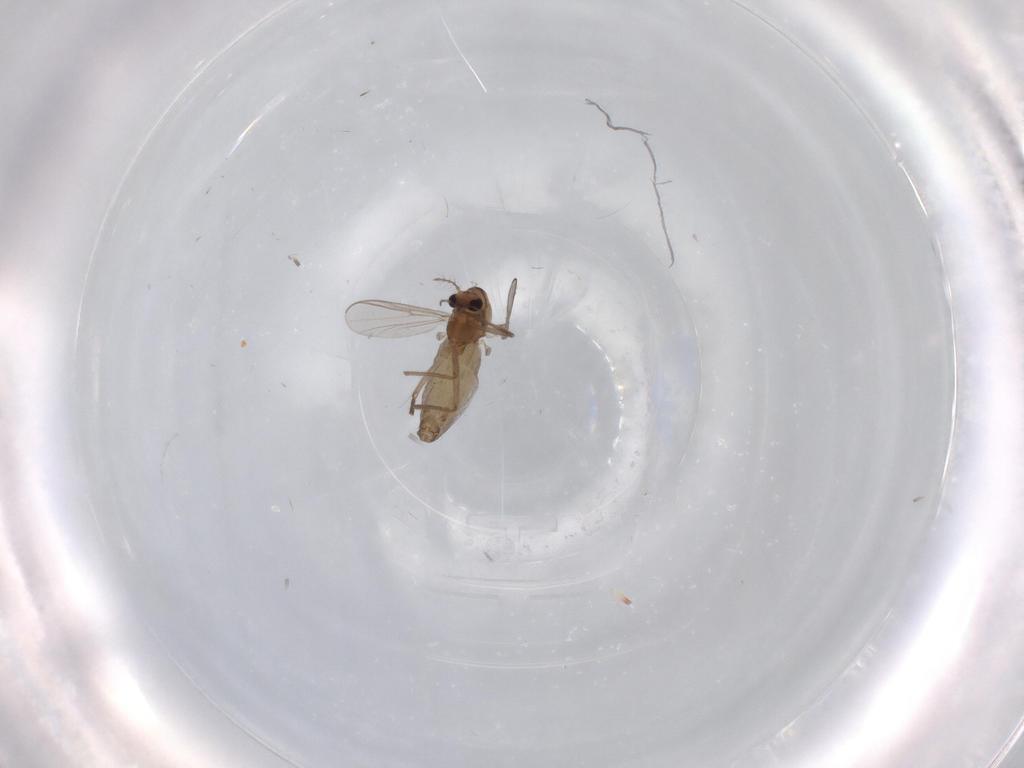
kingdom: Animalia
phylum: Arthropoda
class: Insecta
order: Diptera
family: Chironomidae
